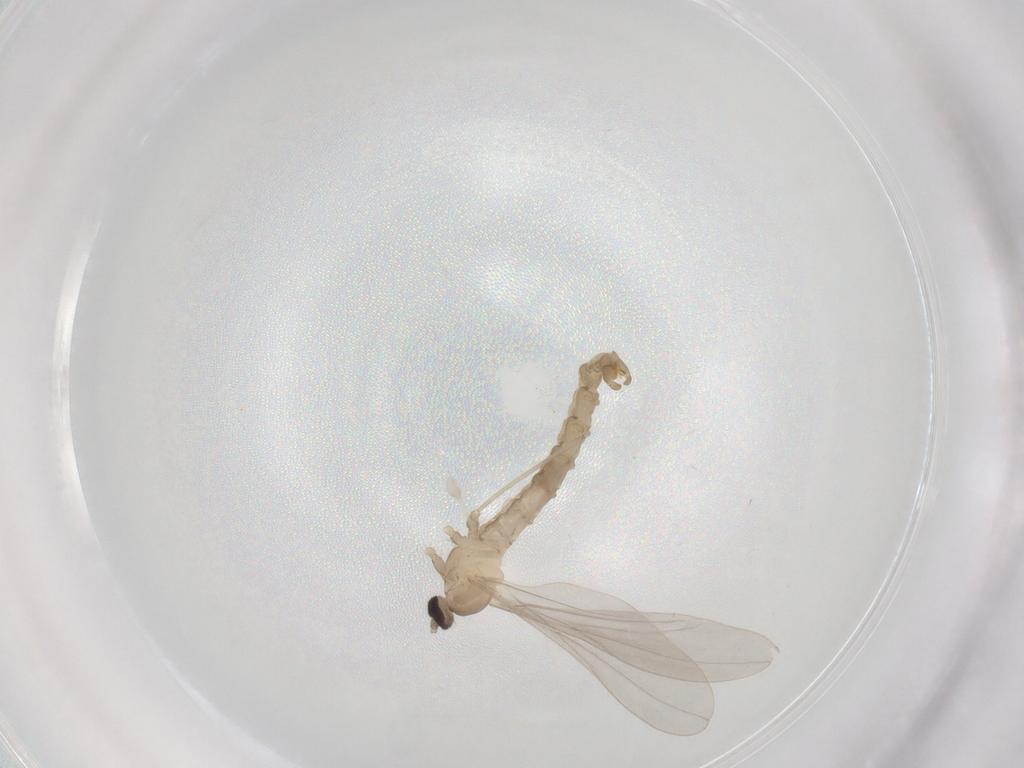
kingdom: Animalia
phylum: Arthropoda
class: Insecta
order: Diptera
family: Cecidomyiidae
